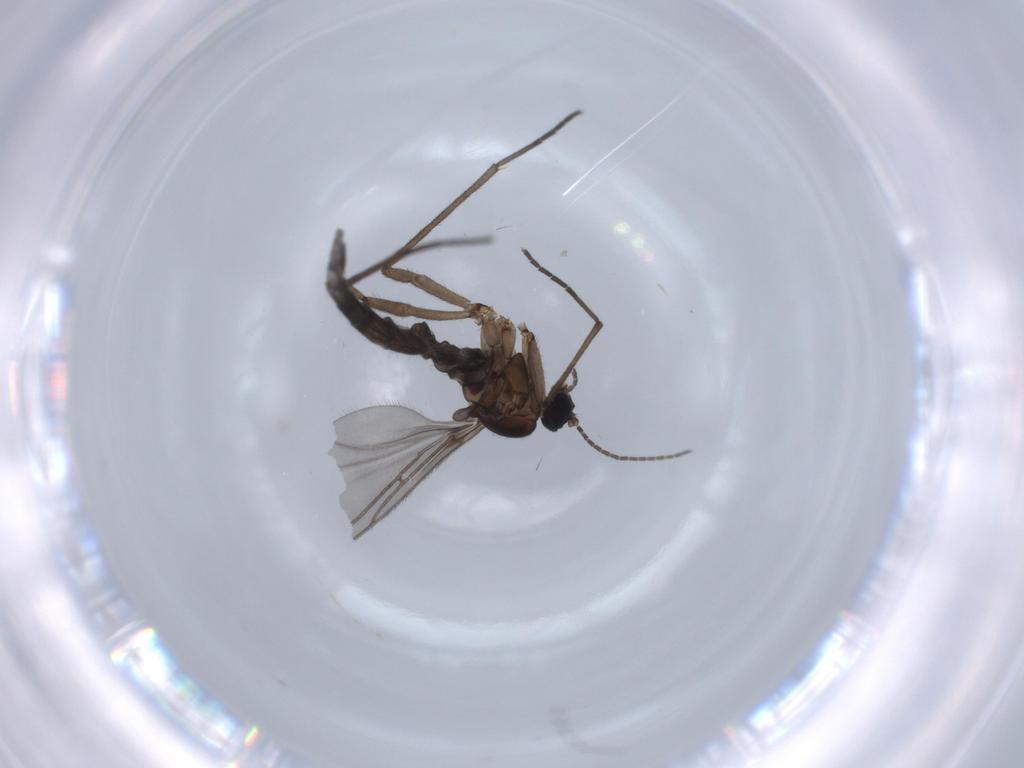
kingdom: Animalia
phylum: Arthropoda
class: Insecta
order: Diptera
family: Sciaridae
